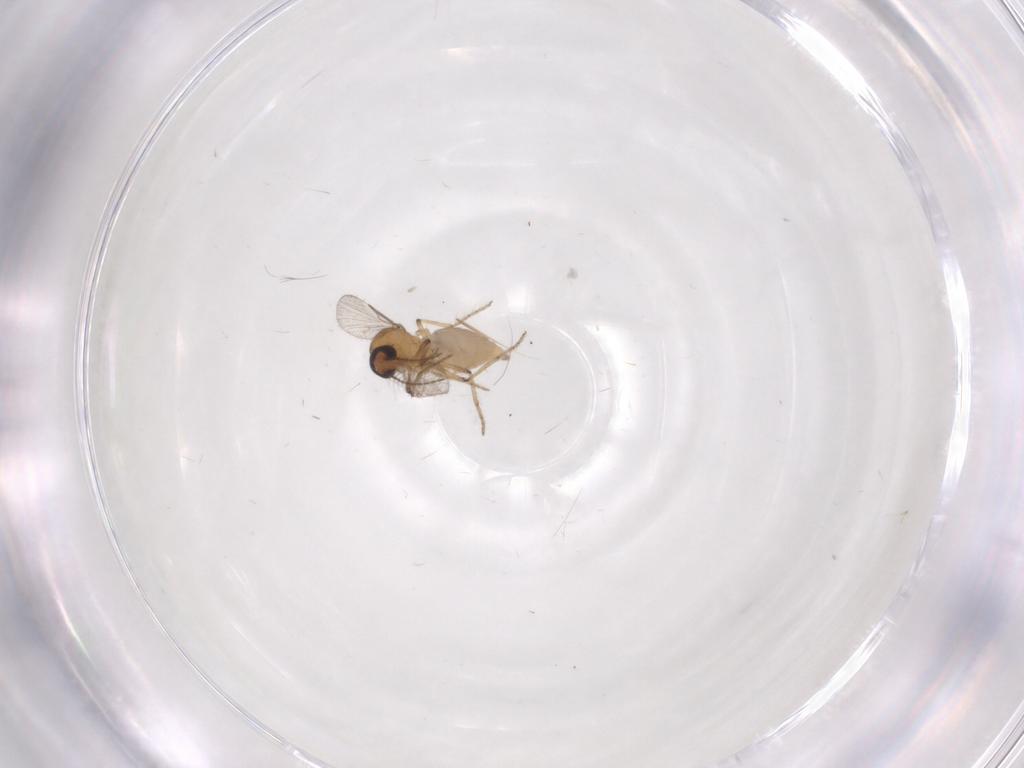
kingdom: Animalia
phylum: Arthropoda
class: Insecta
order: Diptera
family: Ceratopogonidae
